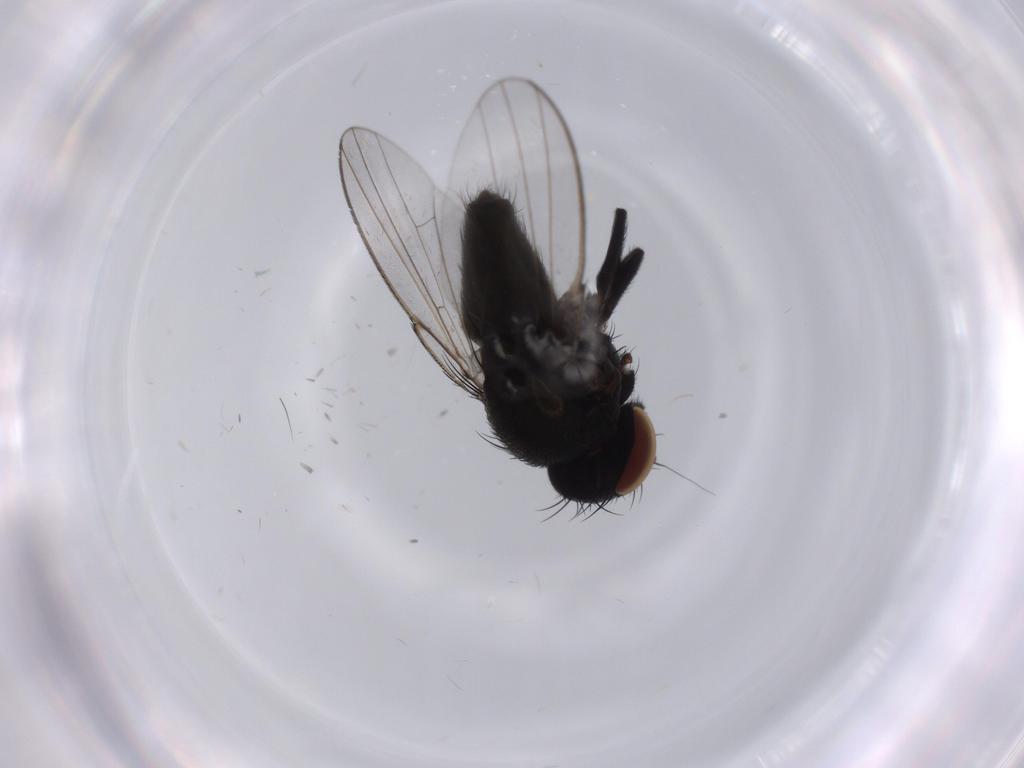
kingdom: Animalia
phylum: Arthropoda
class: Insecta
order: Diptera
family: Milichiidae
